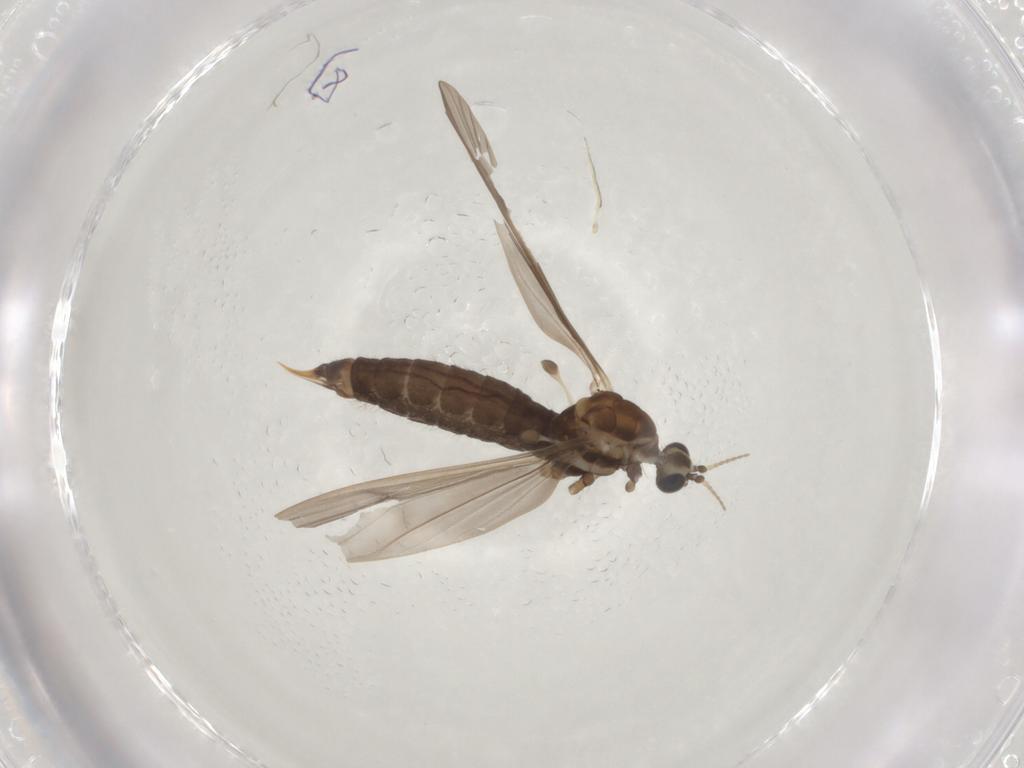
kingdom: Animalia
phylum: Arthropoda
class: Insecta
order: Diptera
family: Limoniidae
